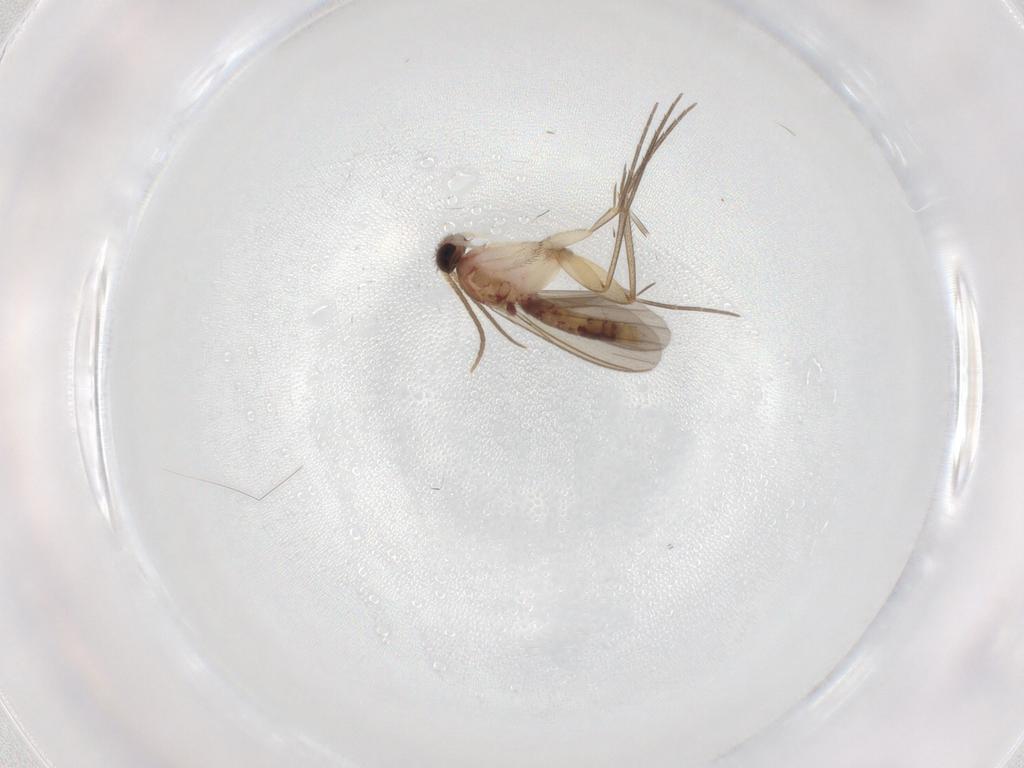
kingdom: Animalia
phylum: Arthropoda
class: Insecta
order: Diptera
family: Mycetophilidae
